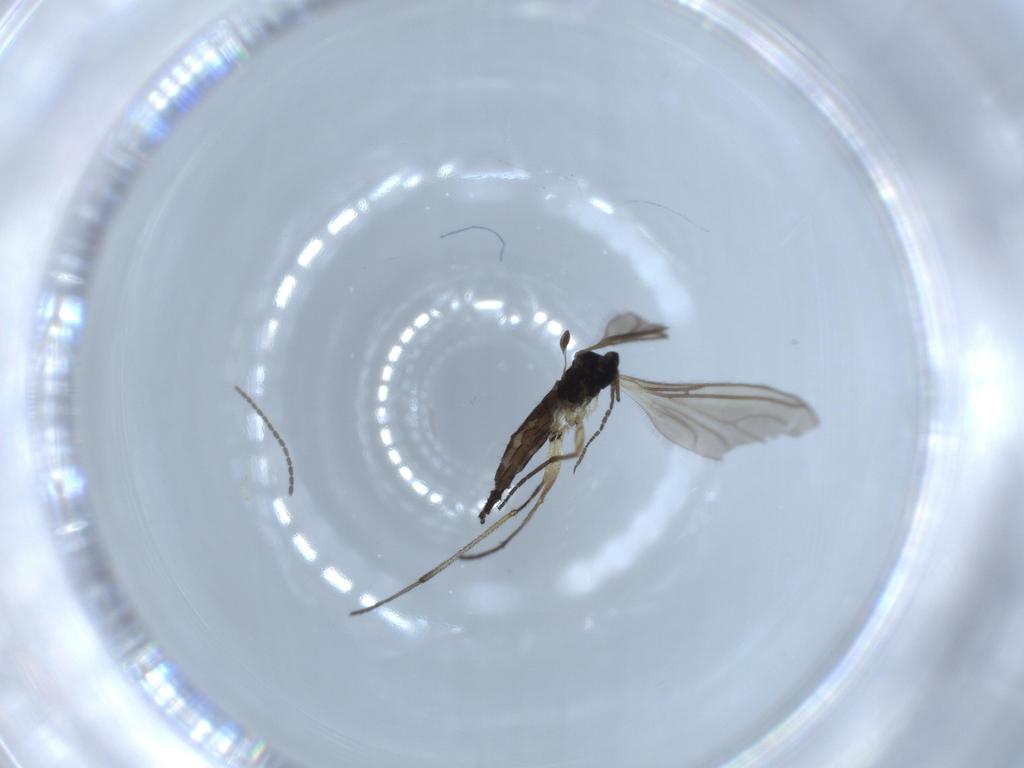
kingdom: Animalia
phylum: Arthropoda
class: Insecta
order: Diptera
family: Sciaridae
